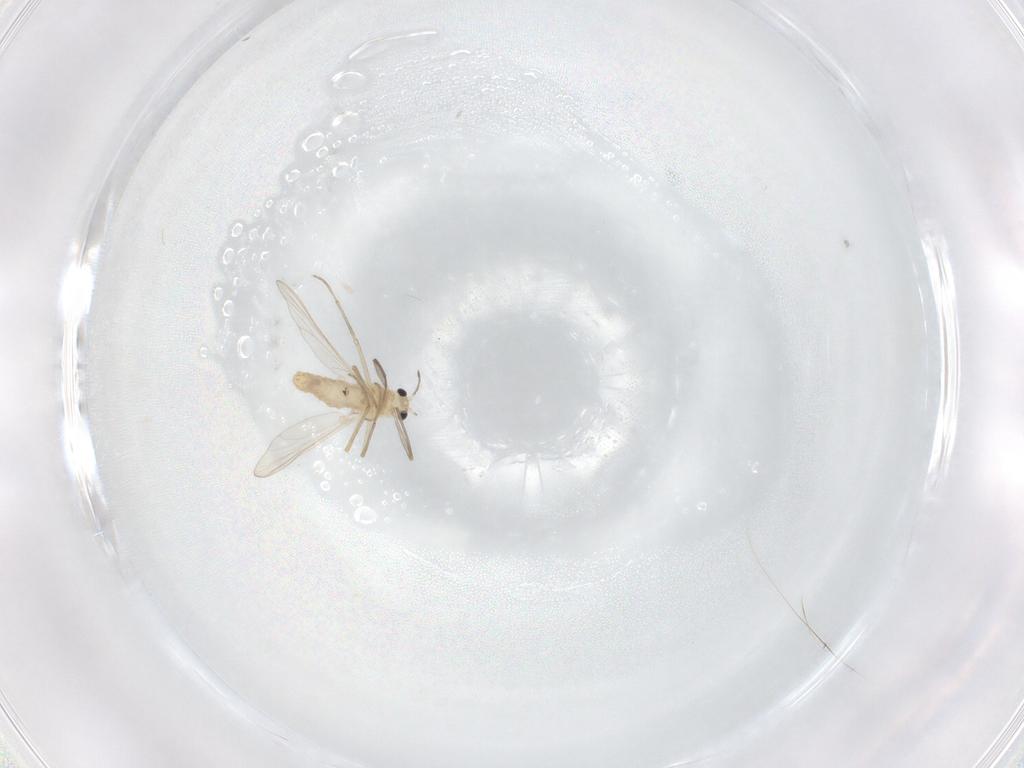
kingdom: Animalia
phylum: Arthropoda
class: Insecta
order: Diptera
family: Chironomidae
